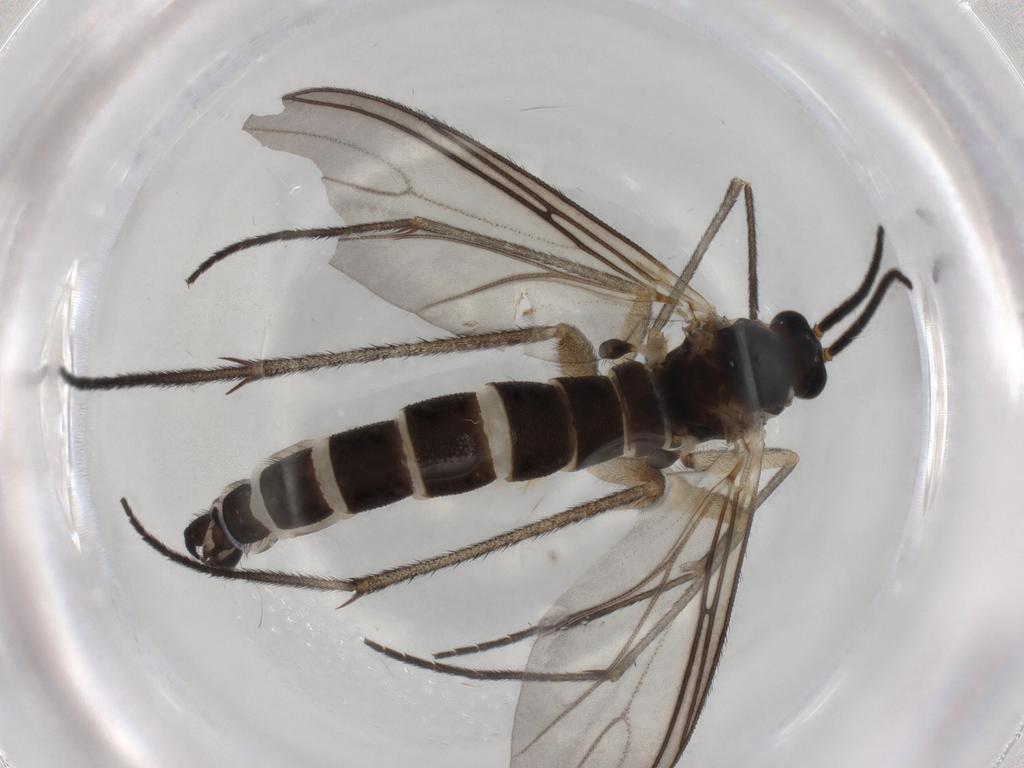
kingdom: Animalia
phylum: Arthropoda
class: Insecta
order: Diptera
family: Sciaridae
